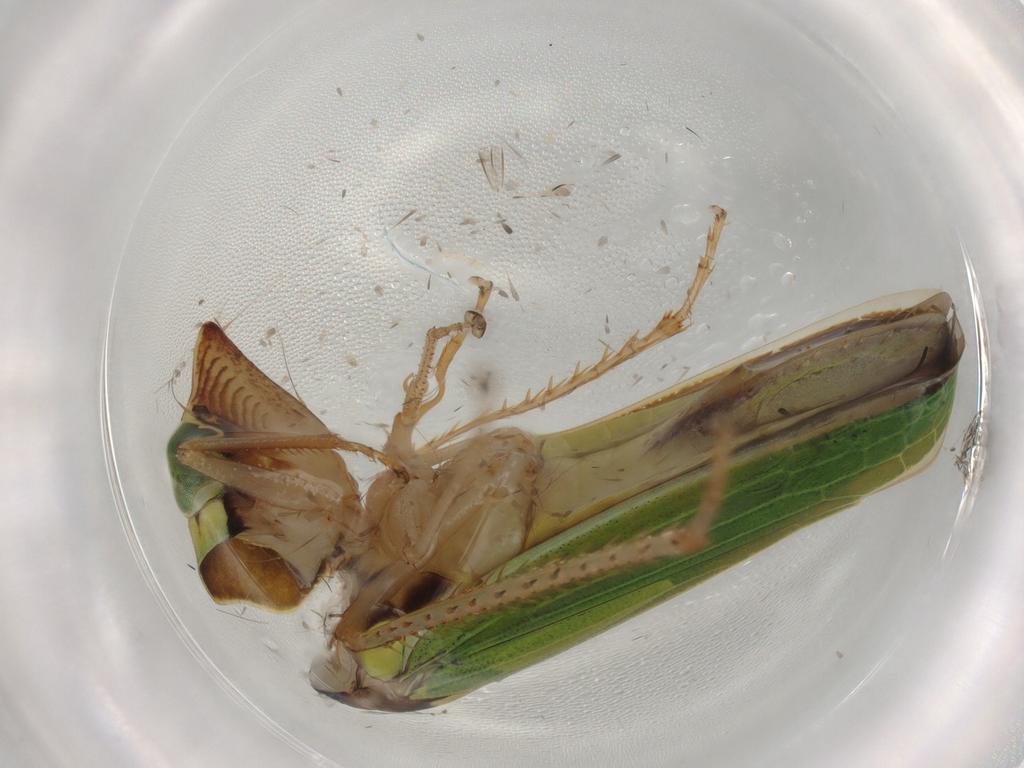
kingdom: Animalia
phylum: Arthropoda
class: Insecta
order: Hemiptera
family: Cicadellidae
